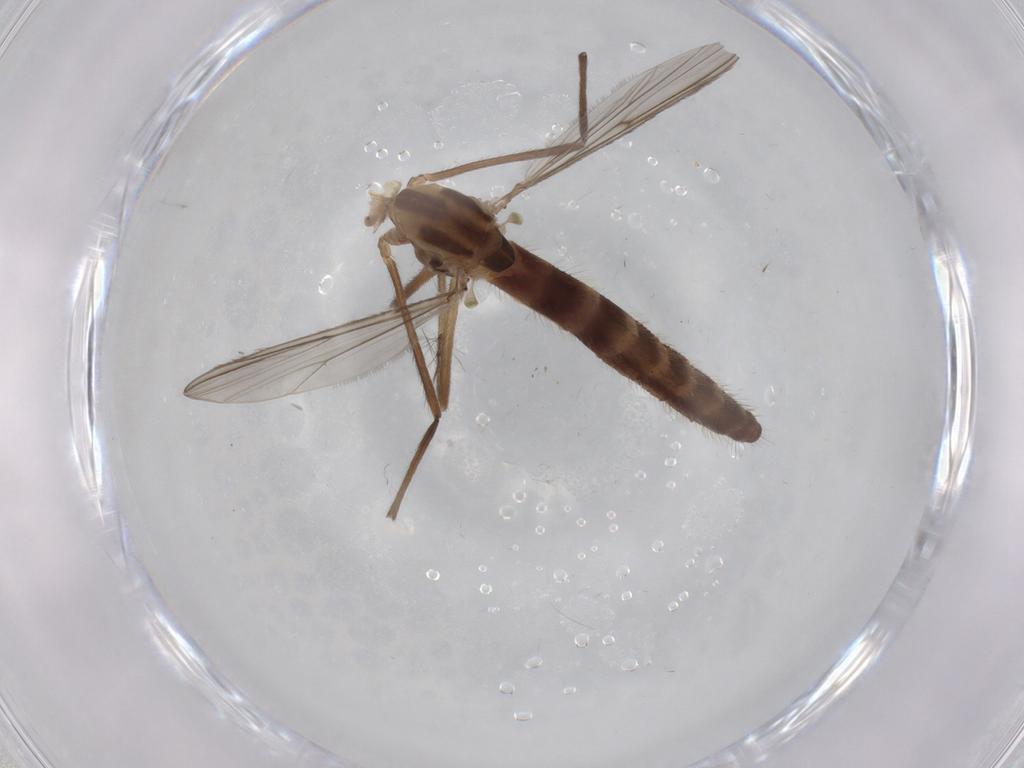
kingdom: Animalia
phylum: Arthropoda
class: Insecta
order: Diptera
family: Chironomidae
